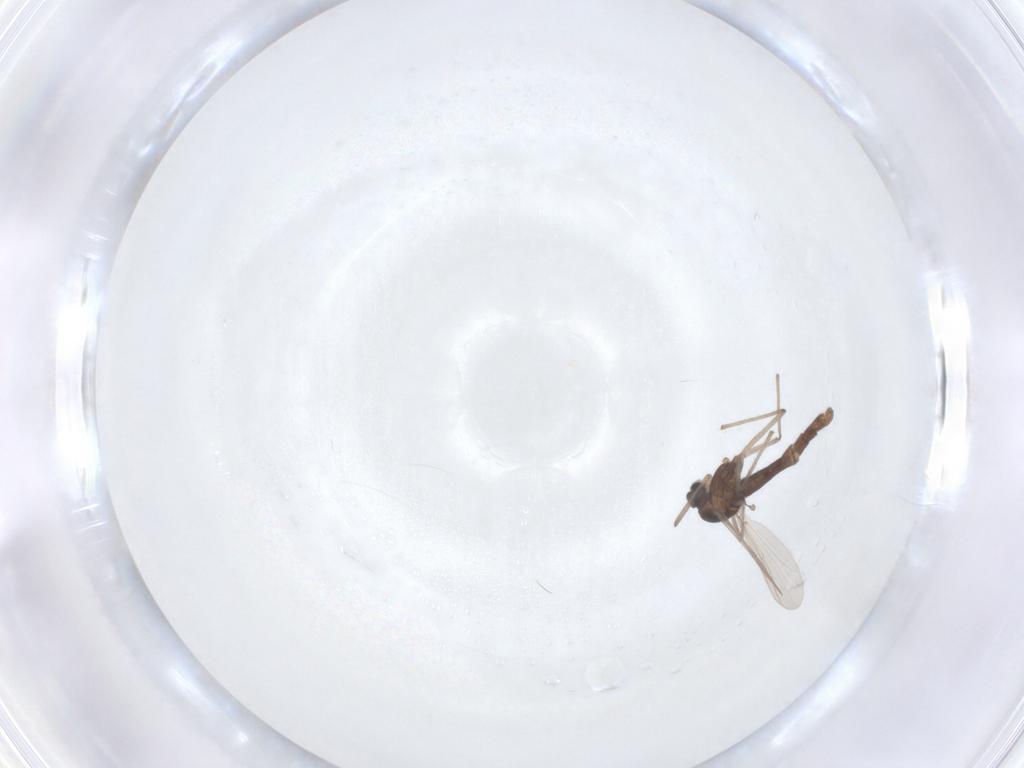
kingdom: Animalia
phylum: Arthropoda
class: Insecta
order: Diptera
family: Chironomidae
